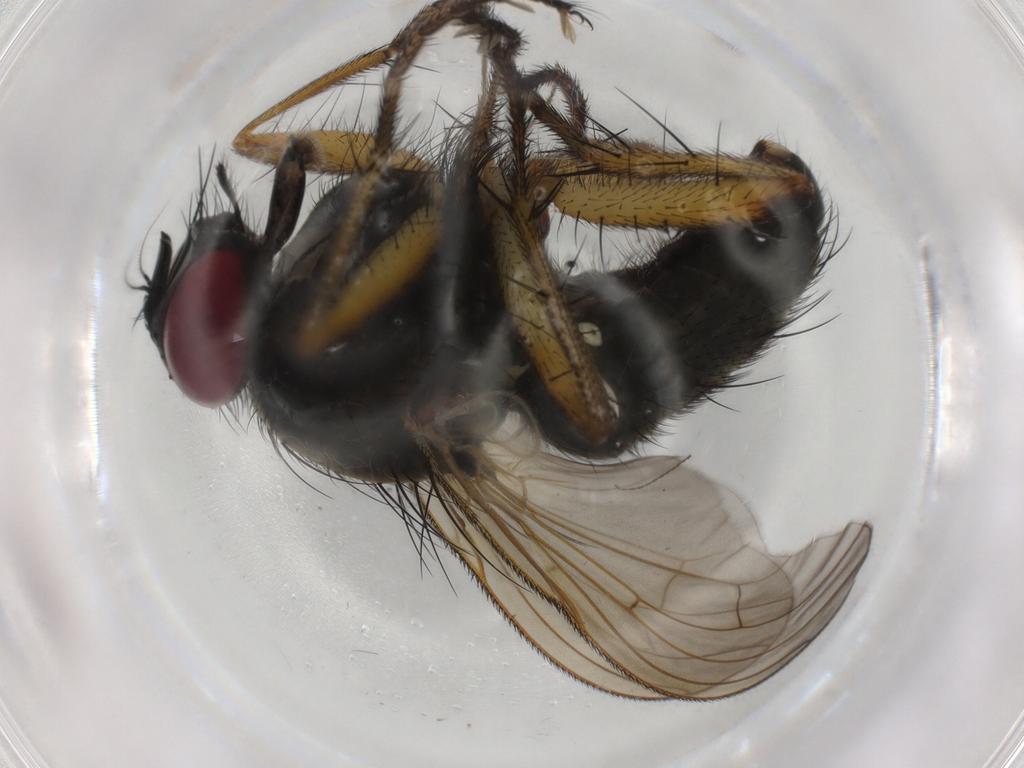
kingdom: Animalia
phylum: Arthropoda
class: Insecta
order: Diptera
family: Muscidae
